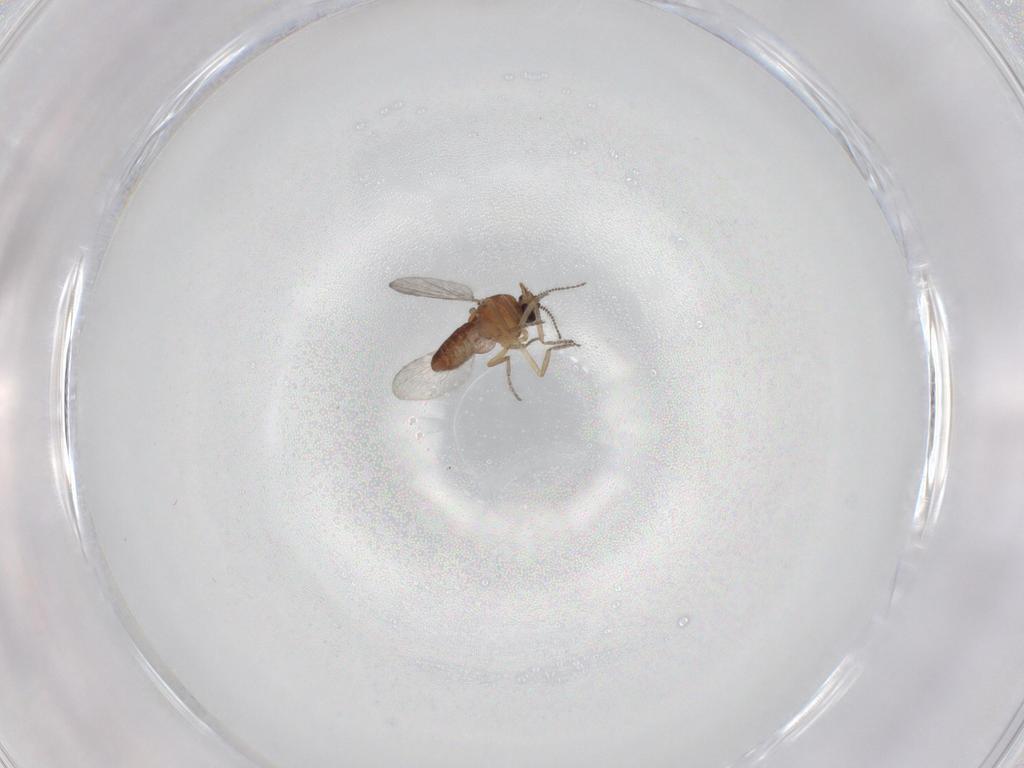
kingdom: Animalia
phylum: Arthropoda
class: Insecta
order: Diptera
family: Ceratopogonidae
